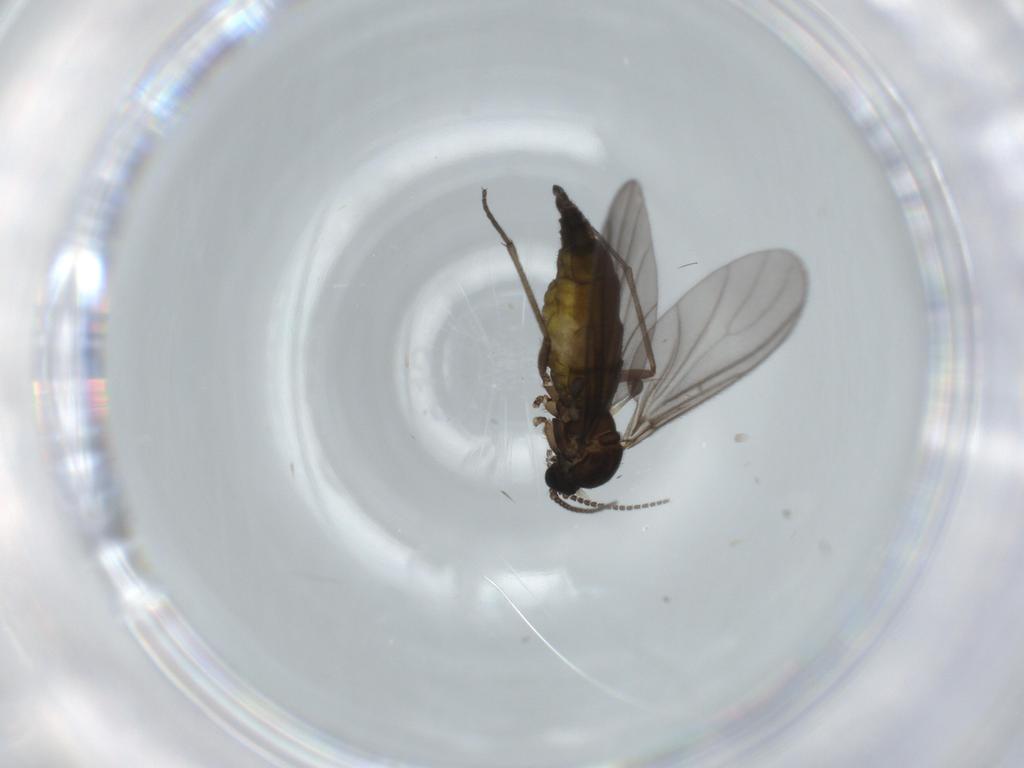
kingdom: Animalia
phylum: Arthropoda
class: Insecta
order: Diptera
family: Sciaridae
